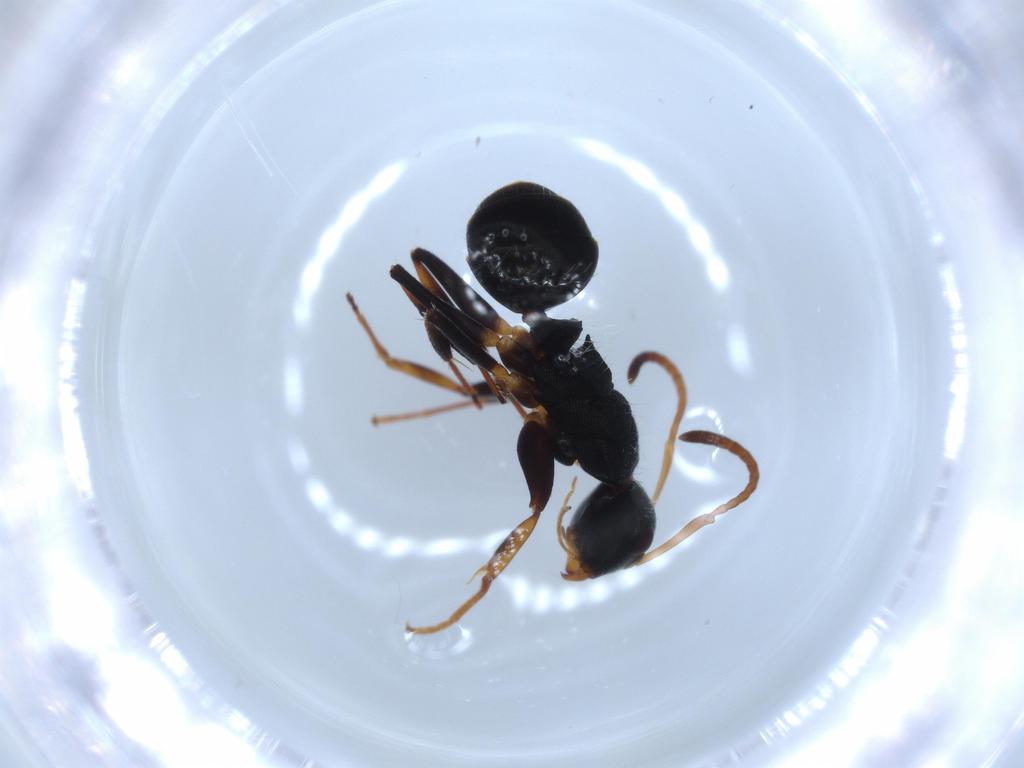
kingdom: Animalia
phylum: Arthropoda
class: Insecta
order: Hymenoptera
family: Formicidae
